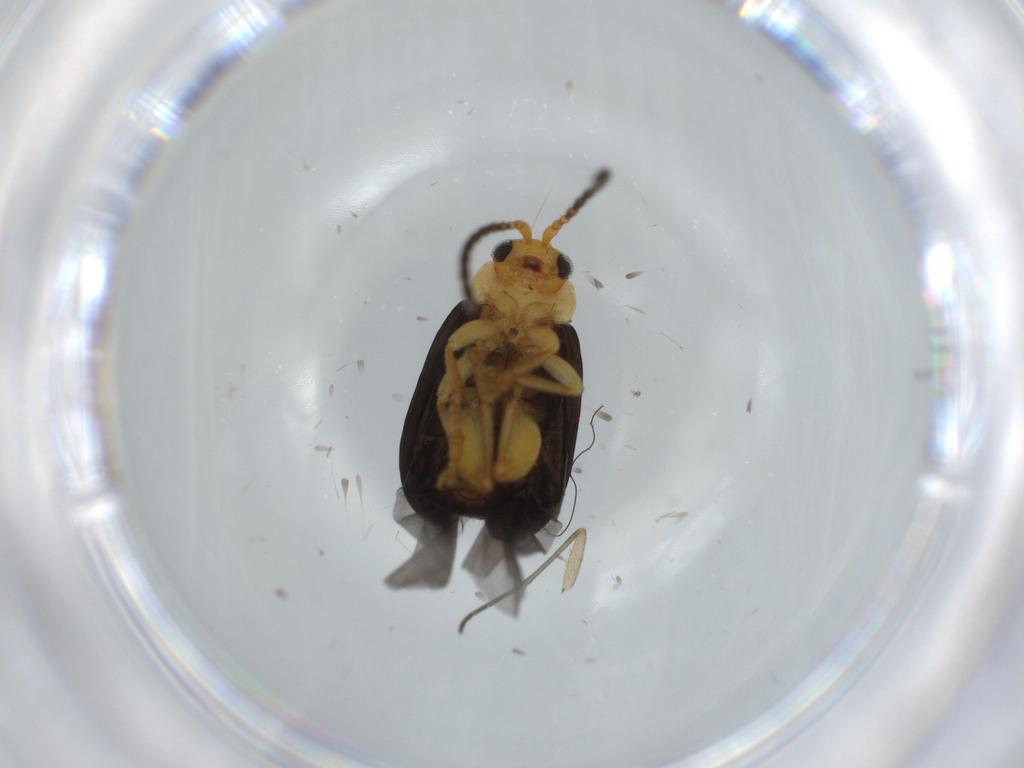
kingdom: Animalia
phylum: Arthropoda
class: Insecta
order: Coleoptera
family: Chrysomelidae
